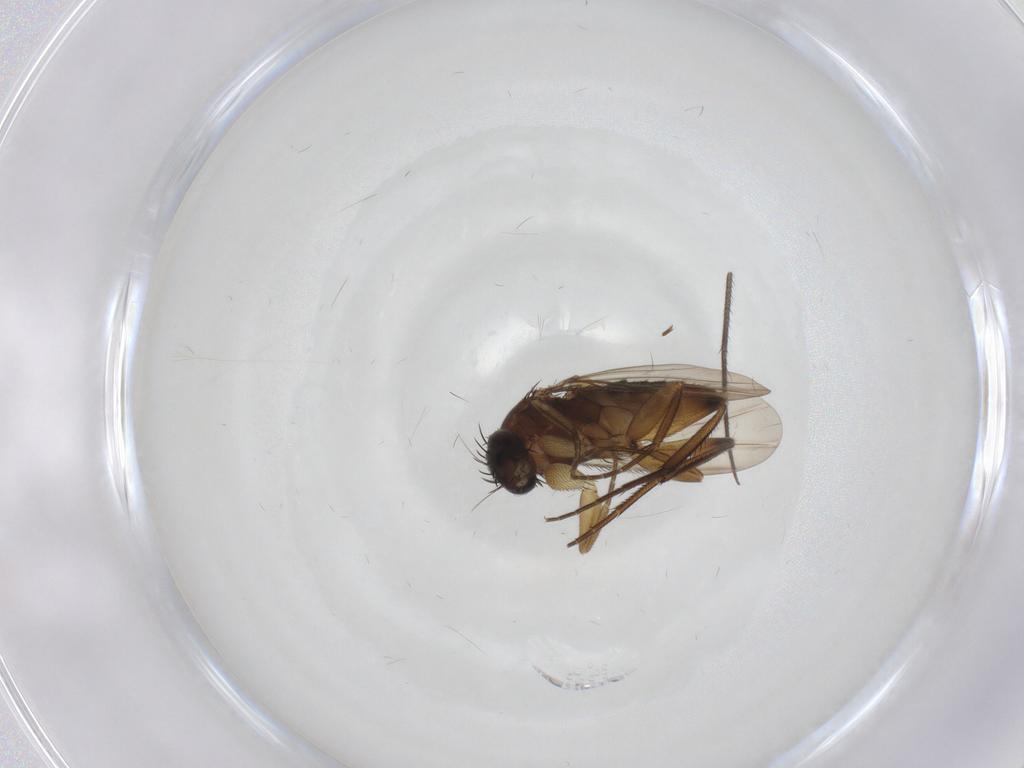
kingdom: Animalia
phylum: Arthropoda
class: Insecta
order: Diptera
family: Phoridae
